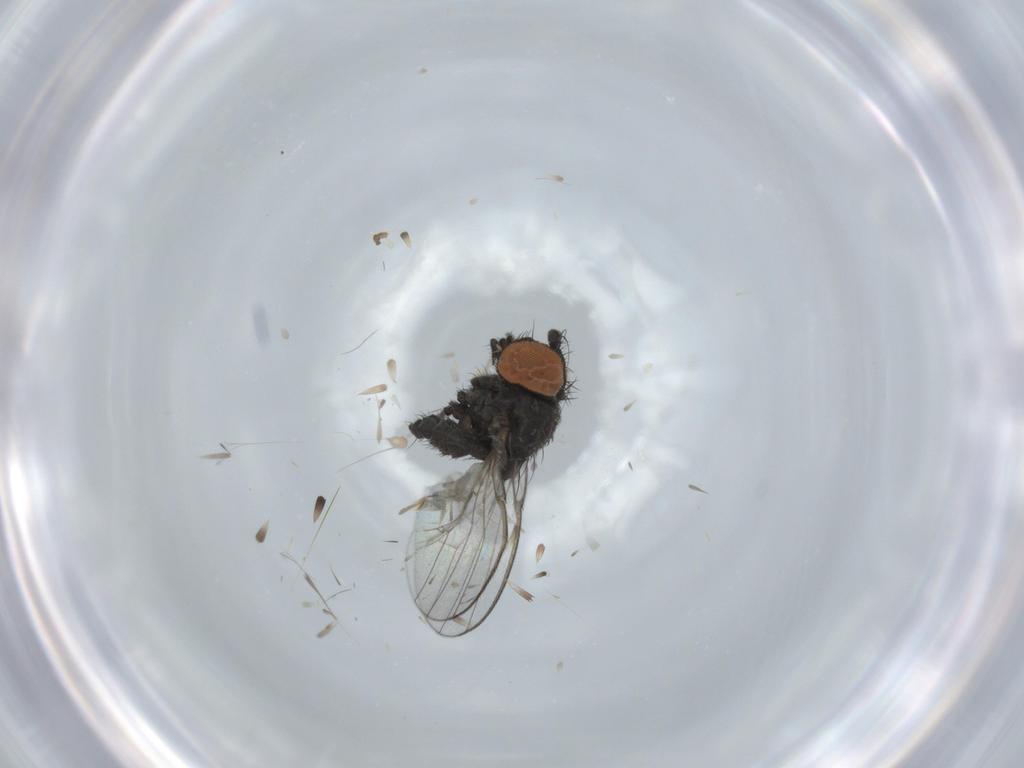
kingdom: Animalia
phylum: Arthropoda
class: Insecta
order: Diptera
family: Milichiidae
